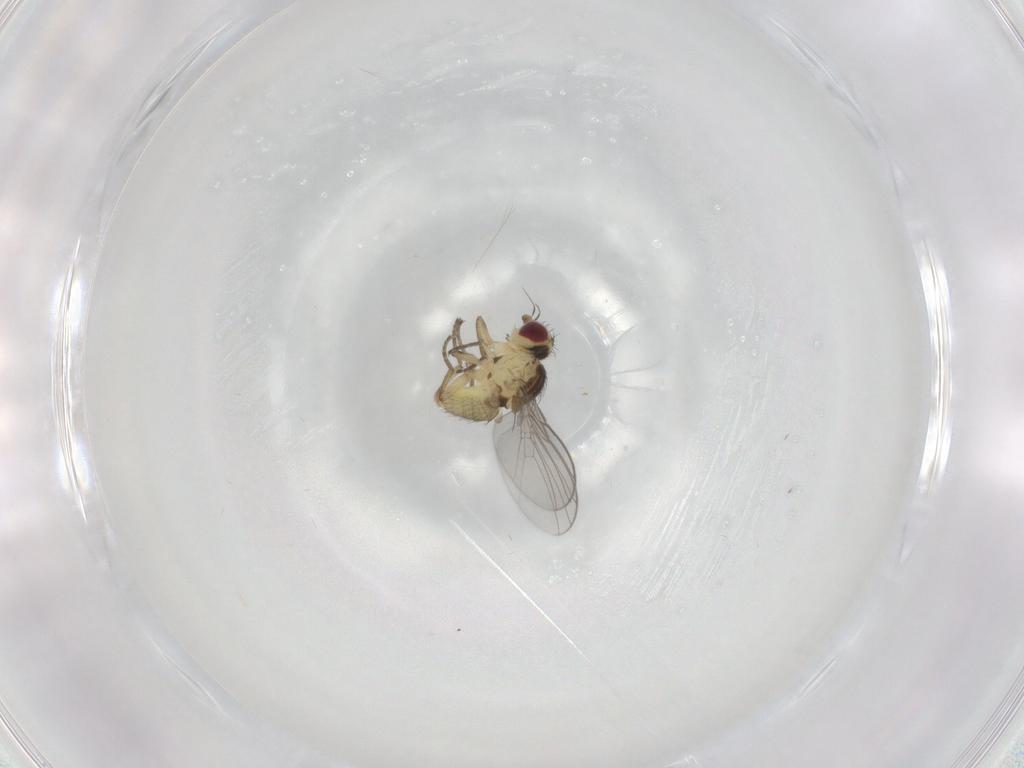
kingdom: Animalia
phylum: Arthropoda
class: Insecta
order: Diptera
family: Agromyzidae
